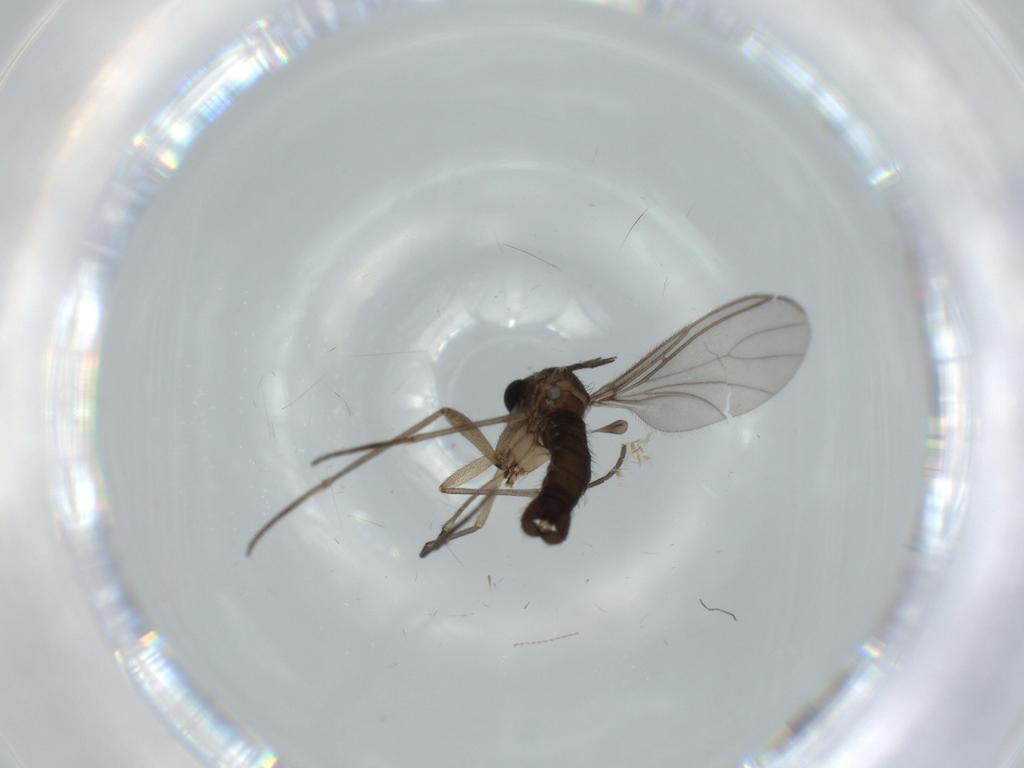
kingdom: Animalia
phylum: Arthropoda
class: Insecta
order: Diptera
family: Sciaridae
